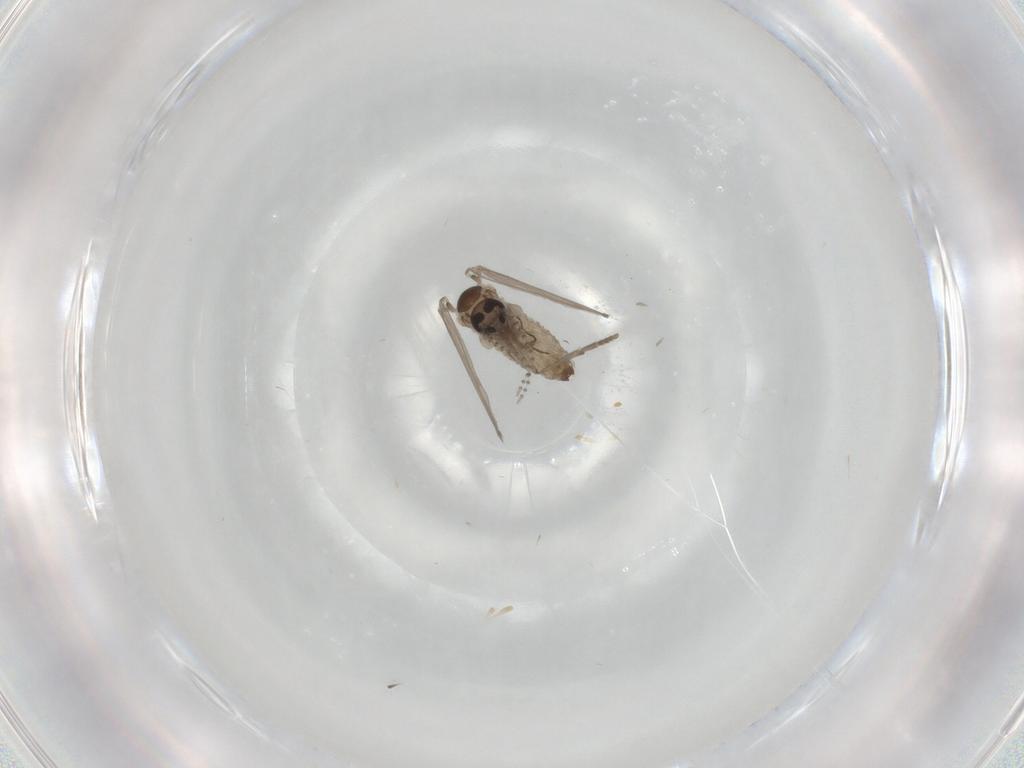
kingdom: Animalia
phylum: Arthropoda
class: Insecta
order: Diptera
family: Psychodidae
